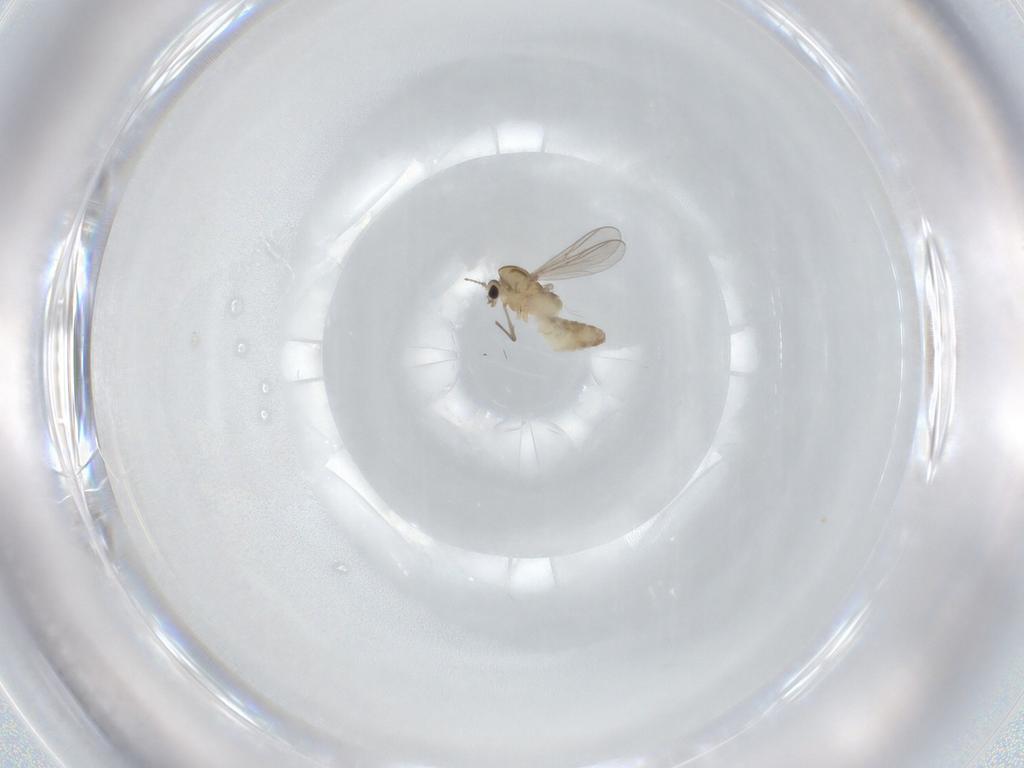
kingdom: Animalia
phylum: Arthropoda
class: Insecta
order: Diptera
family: Chironomidae
